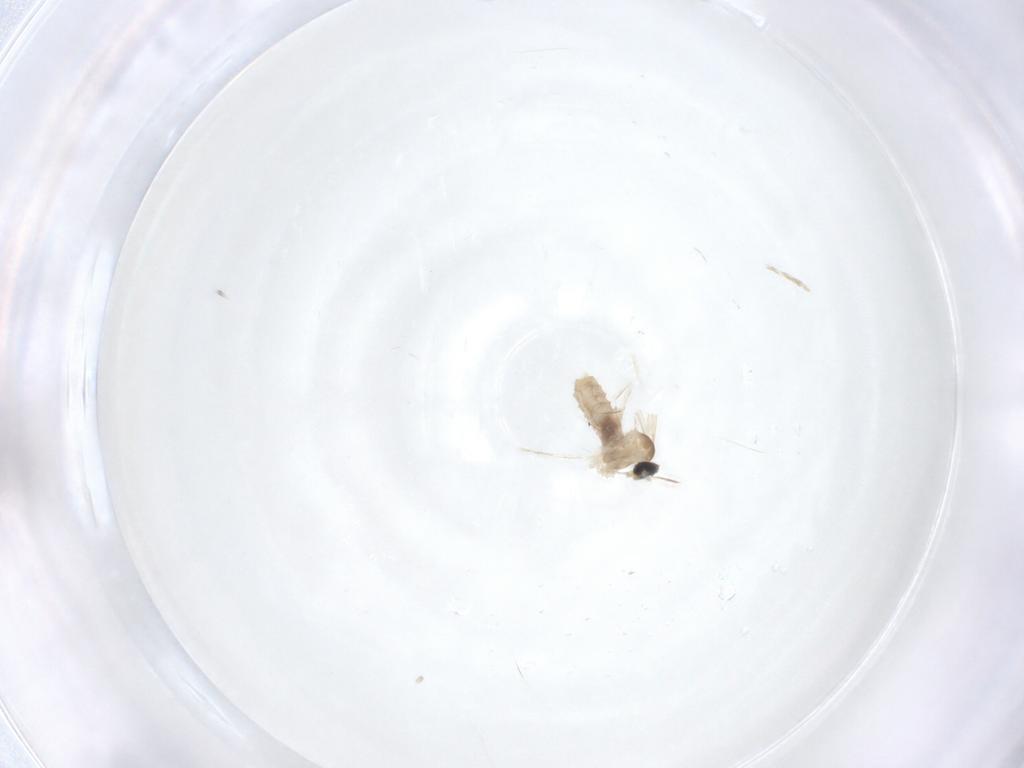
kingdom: Animalia
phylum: Arthropoda
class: Insecta
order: Diptera
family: Cecidomyiidae
